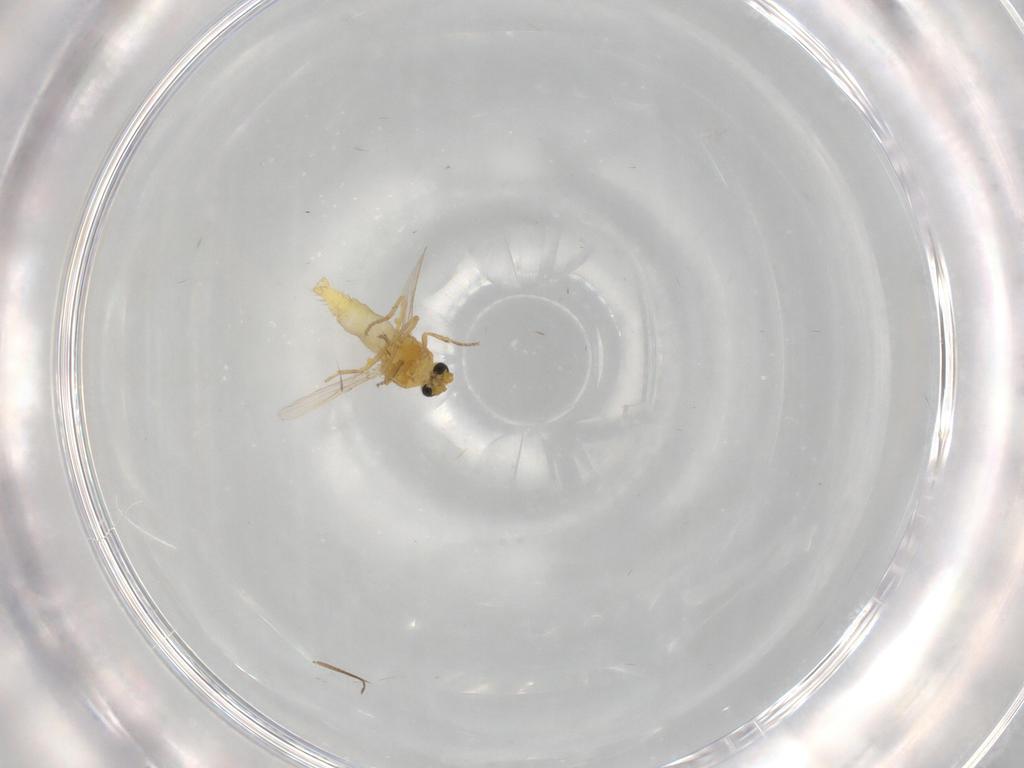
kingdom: Animalia
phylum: Arthropoda
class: Insecta
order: Diptera
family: Ceratopogonidae
